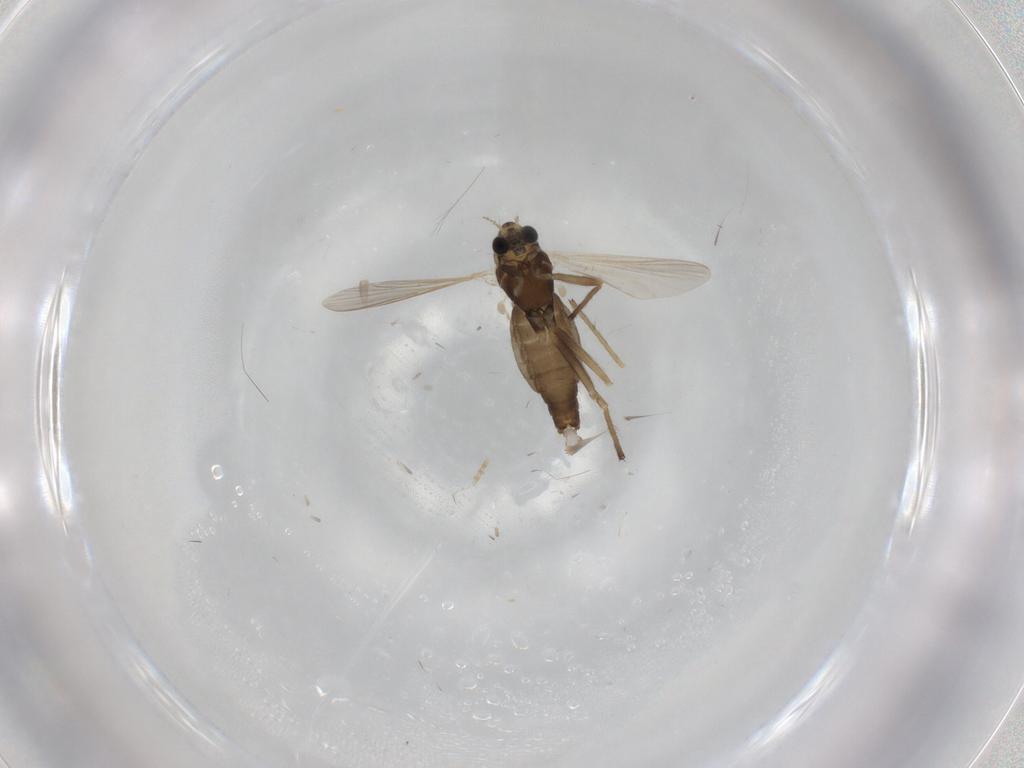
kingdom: Animalia
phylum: Arthropoda
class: Insecta
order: Diptera
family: Chironomidae
